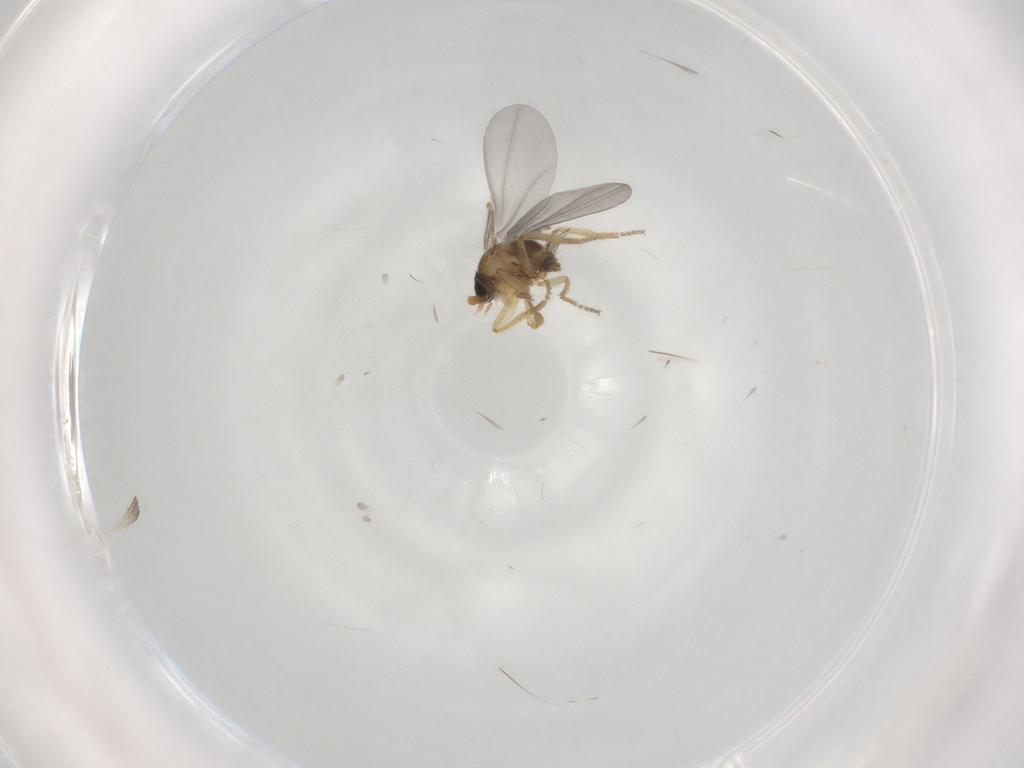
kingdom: Animalia
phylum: Arthropoda
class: Insecta
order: Diptera
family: Phoridae
